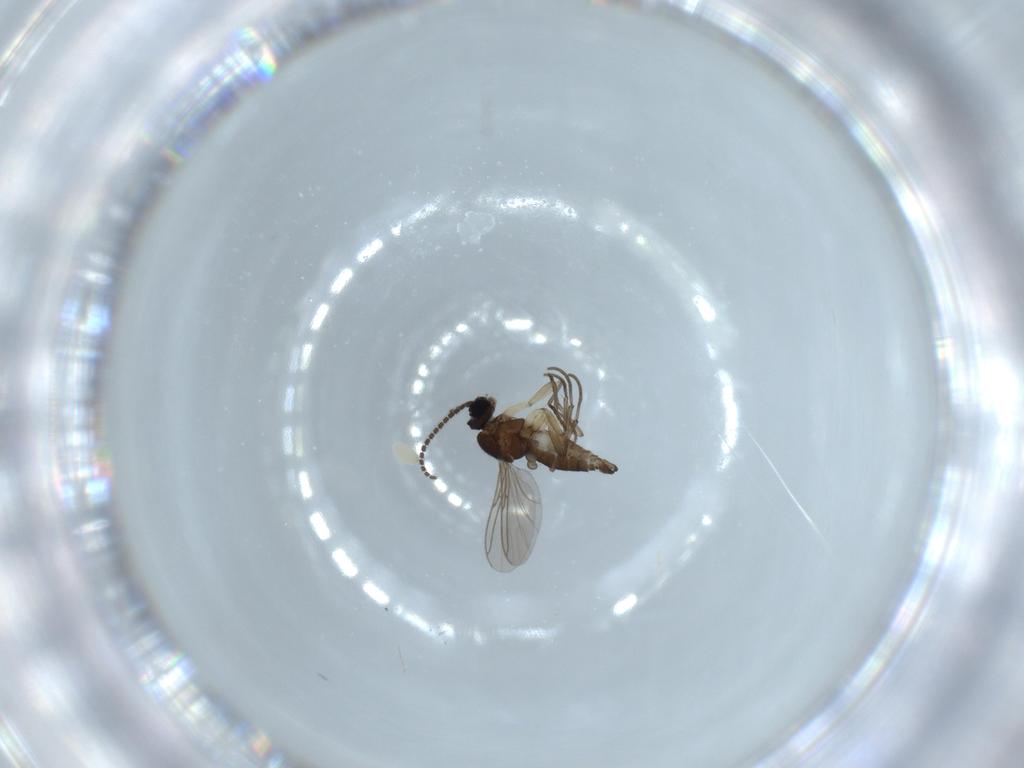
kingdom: Animalia
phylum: Arthropoda
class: Insecta
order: Diptera
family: Sciaridae
